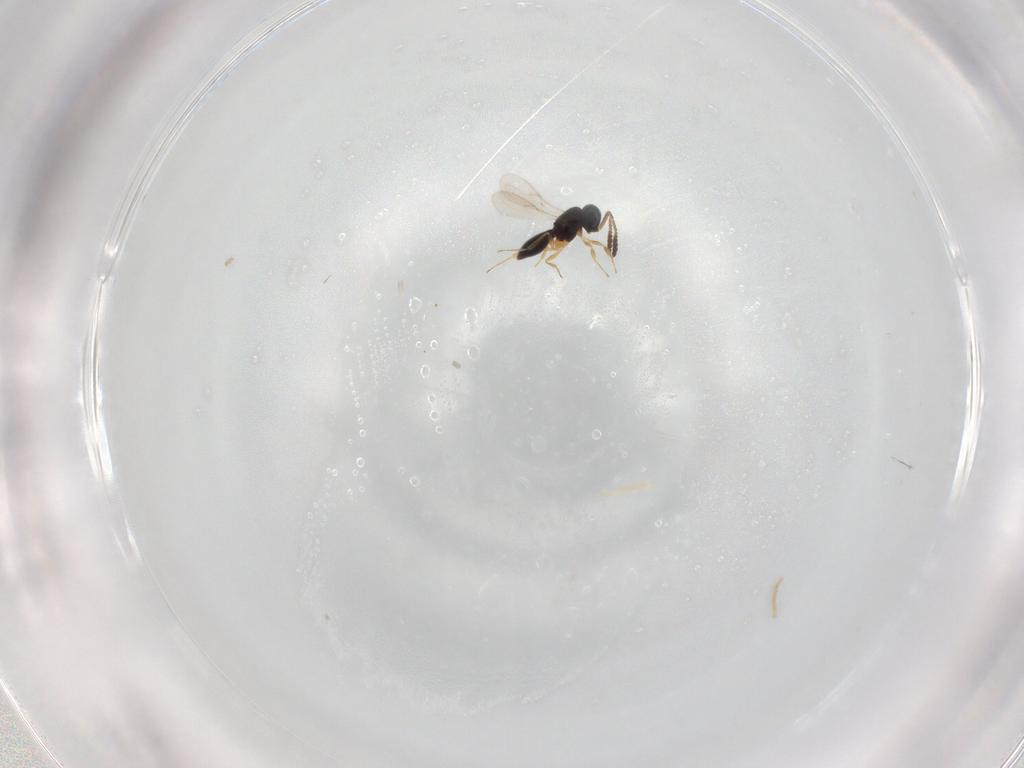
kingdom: Animalia
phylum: Arthropoda
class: Insecta
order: Hymenoptera
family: Scelionidae
